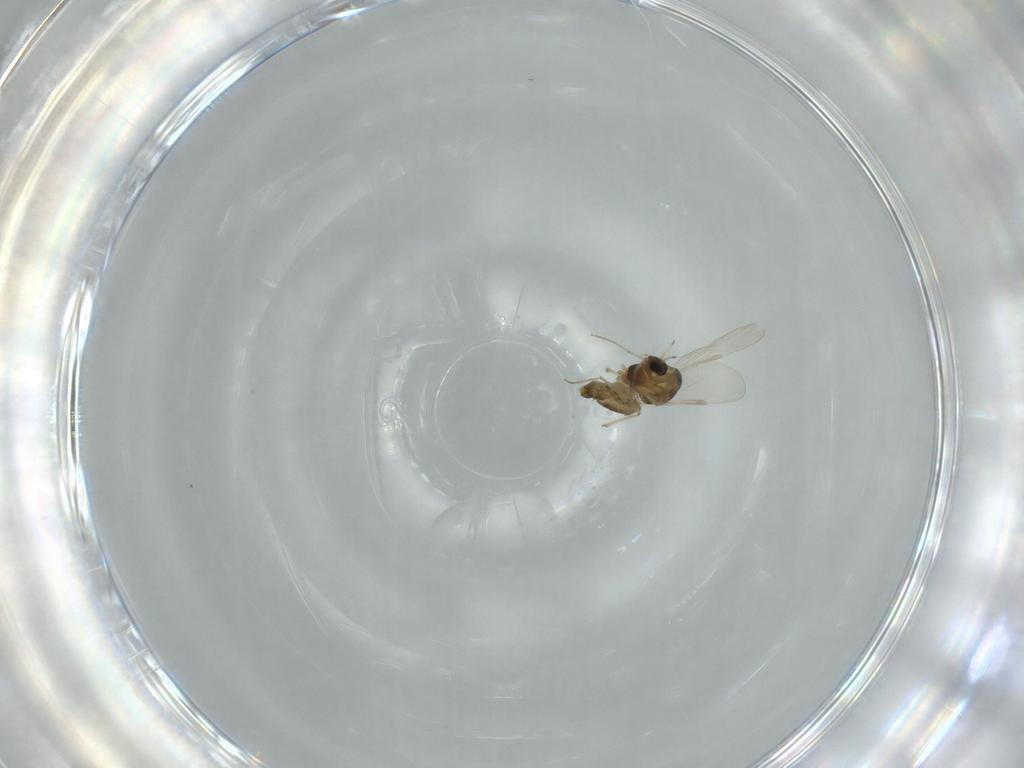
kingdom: Animalia
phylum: Arthropoda
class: Insecta
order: Diptera
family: Chironomidae
